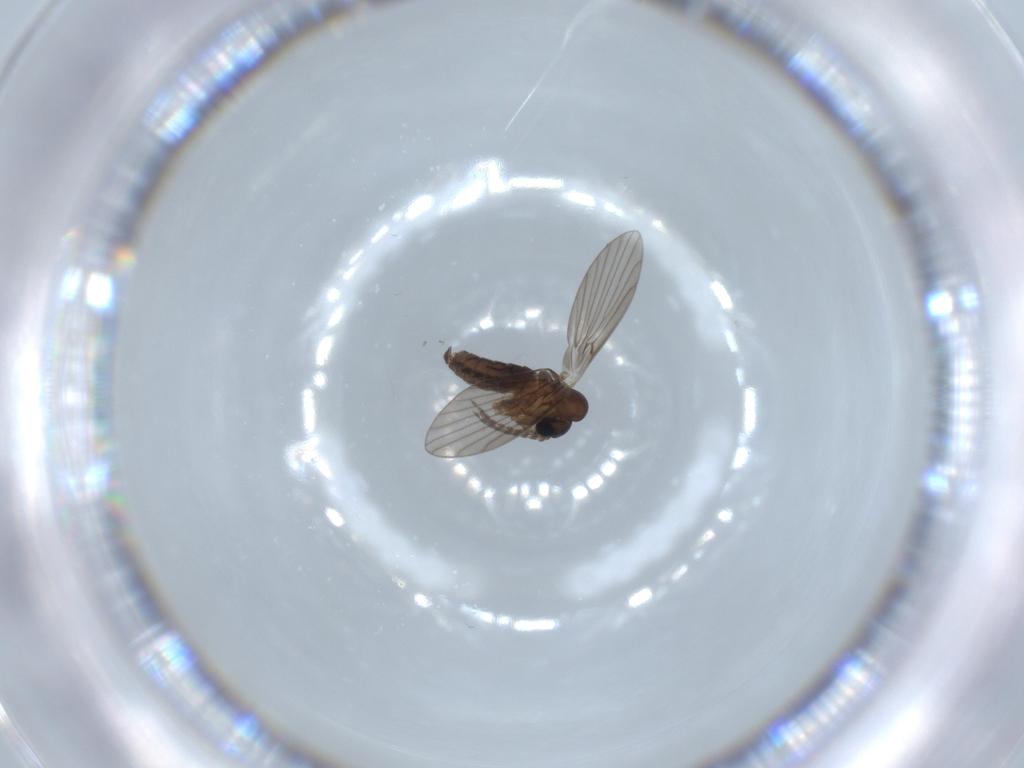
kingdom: Animalia
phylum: Arthropoda
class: Insecta
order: Diptera
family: Psychodidae
